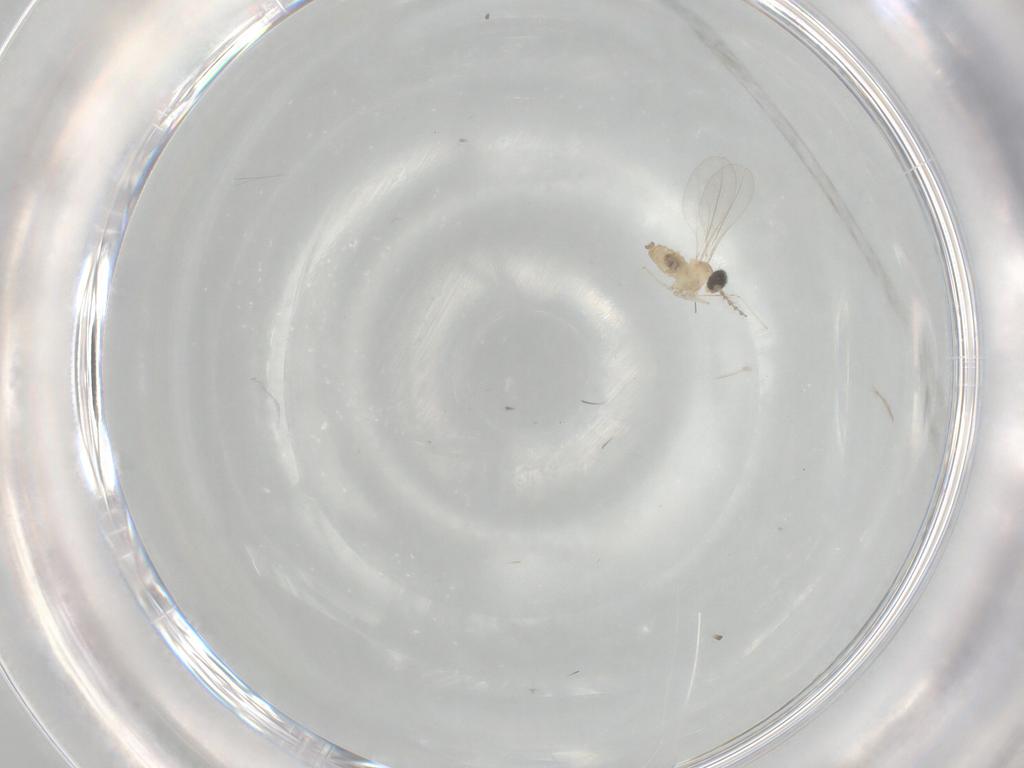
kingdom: Animalia
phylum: Arthropoda
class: Insecta
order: Diptera
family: Cecidomyiidae
